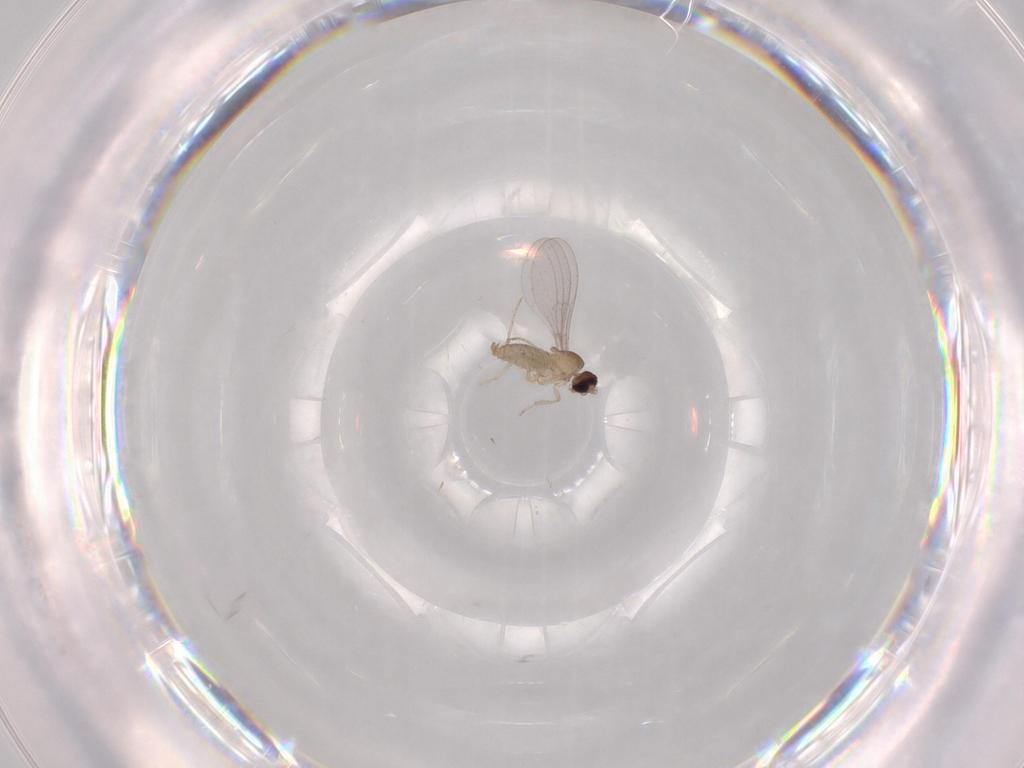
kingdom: Animalia
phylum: Arthropoda
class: Insecta
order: Diptera
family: Cecidomyiidae
